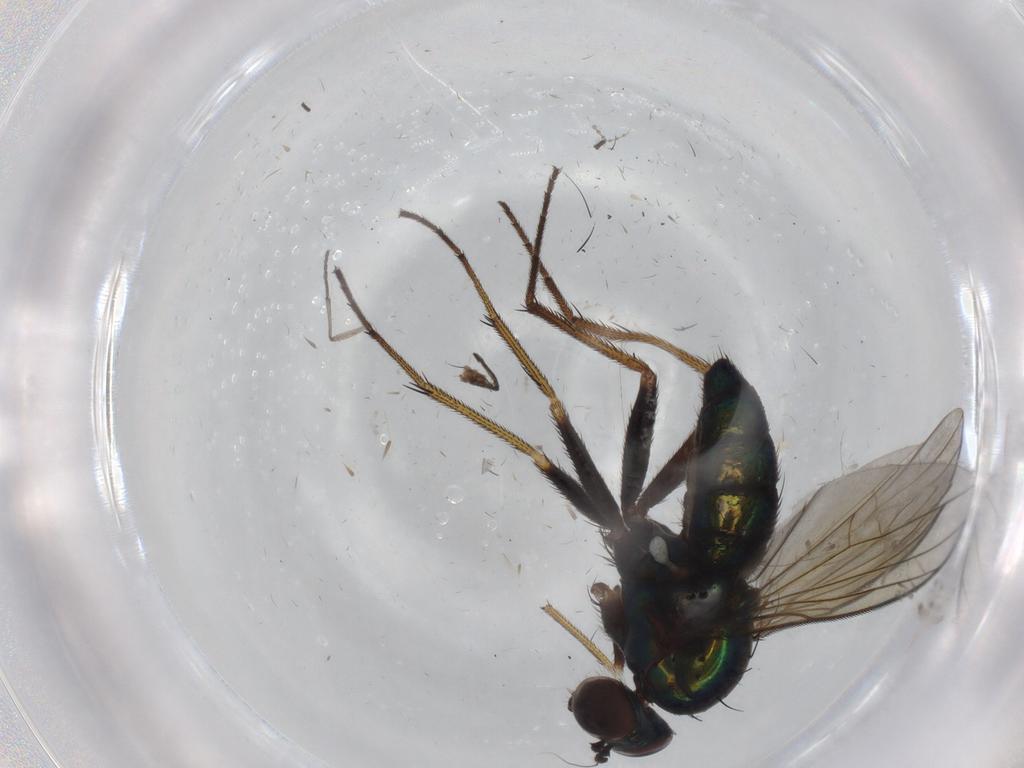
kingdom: Animalia
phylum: Arthropoda
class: Insecta
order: Diptera
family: Dolichopodidae
